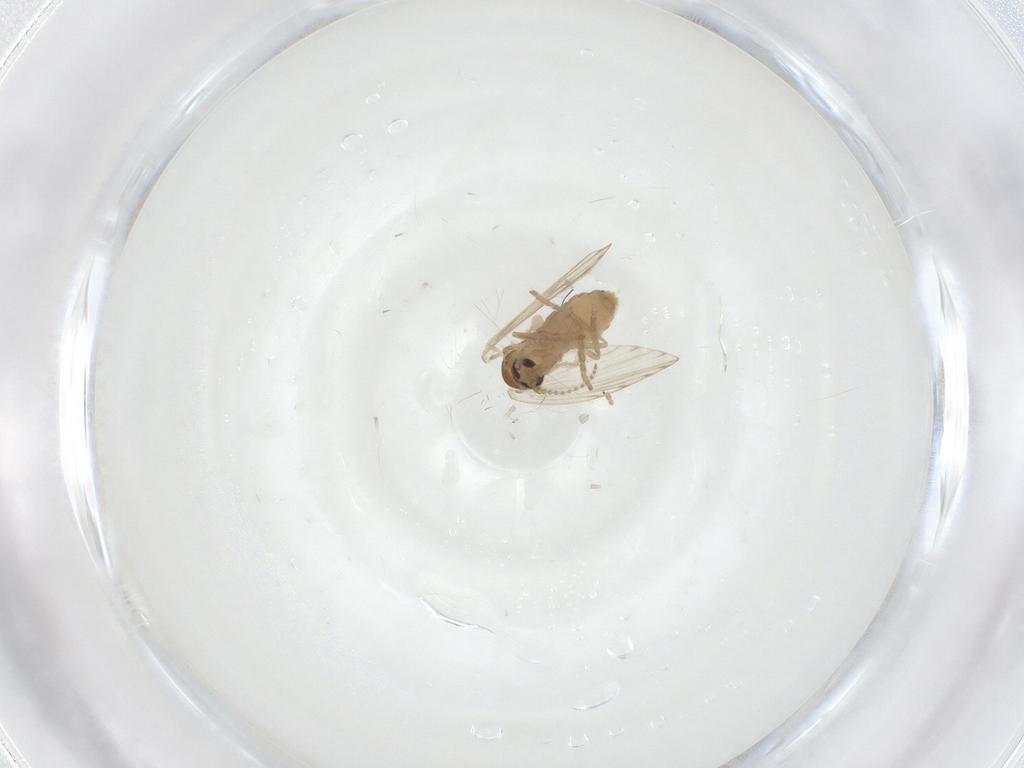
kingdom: Animalia
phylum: Arthropoda
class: Insecta
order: Diptera
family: Psychodidae
